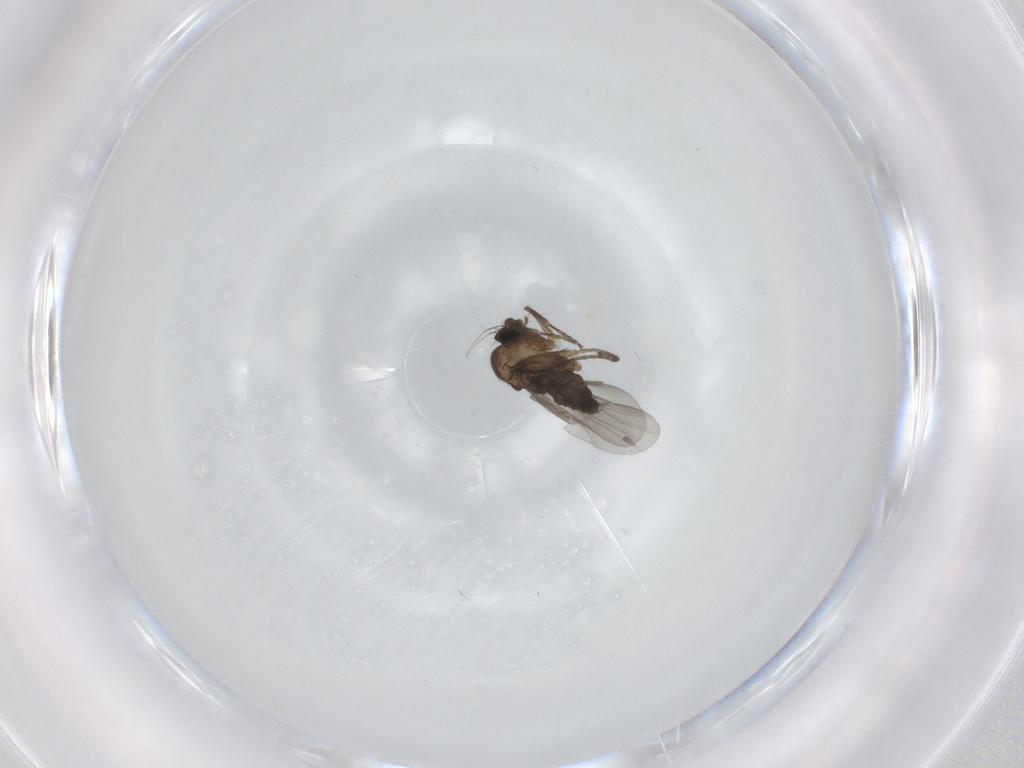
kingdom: Animalia
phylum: Arthropoda
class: Insecta
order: Diptera
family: Phoridae
